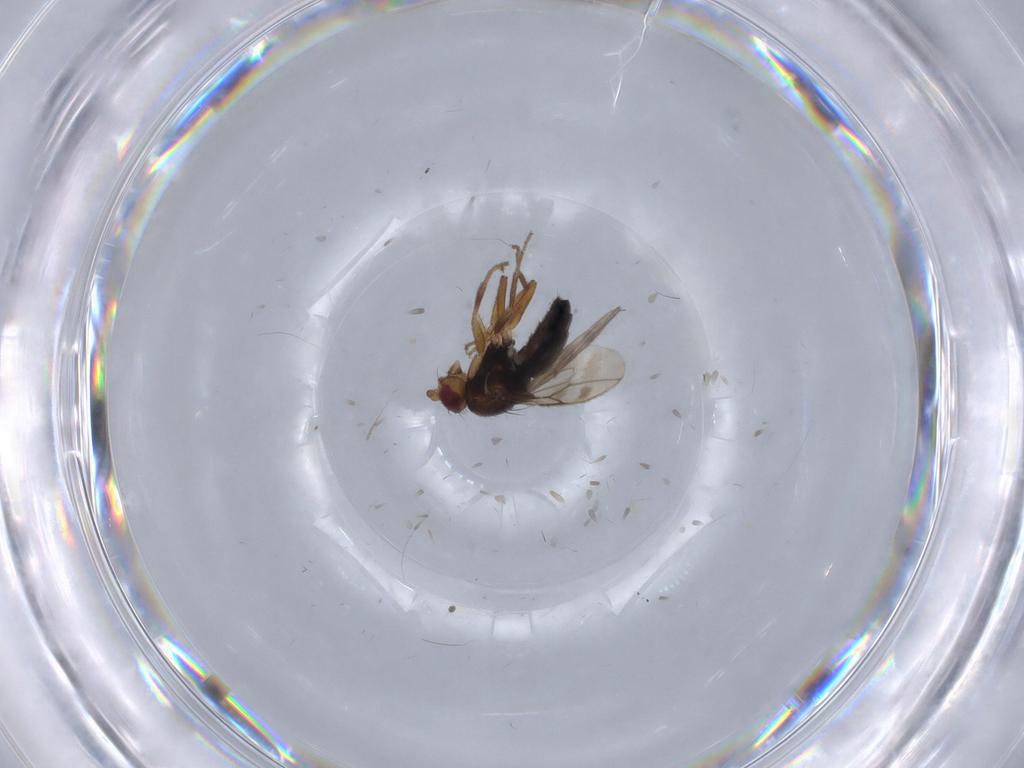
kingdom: Animalia
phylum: Arthropoda
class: Insecta
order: Diptera
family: Sphaeroceridae
